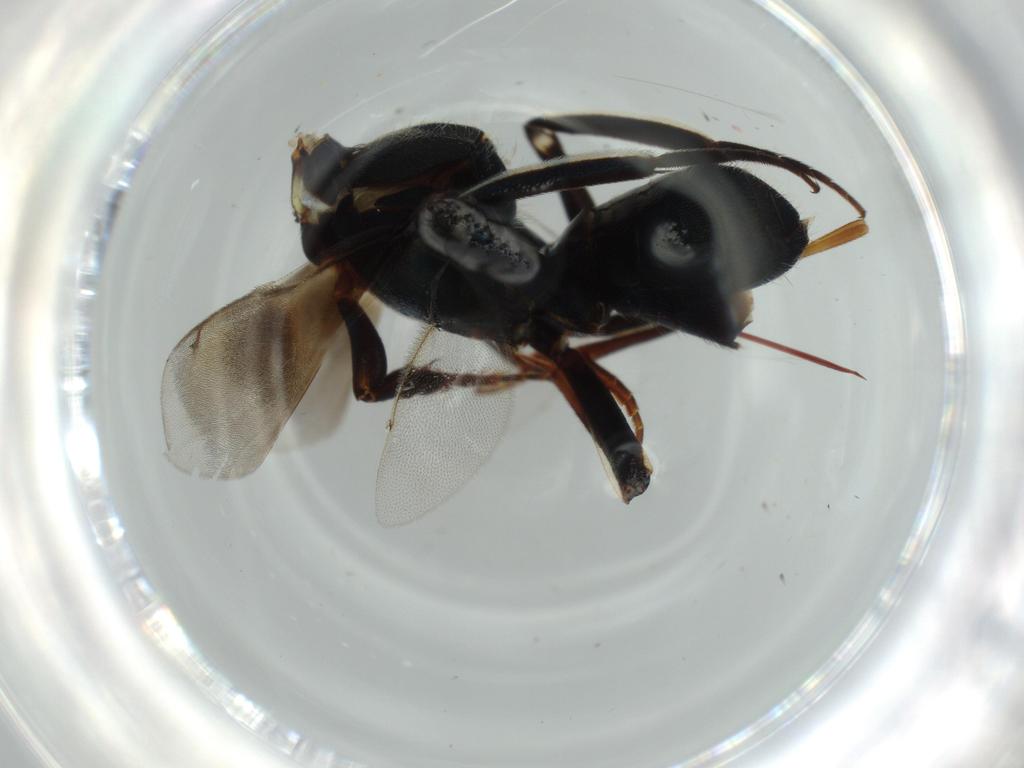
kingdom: Animalia
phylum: Arthropoda
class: Insecta
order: Hymenoptera
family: Eupelmidae
